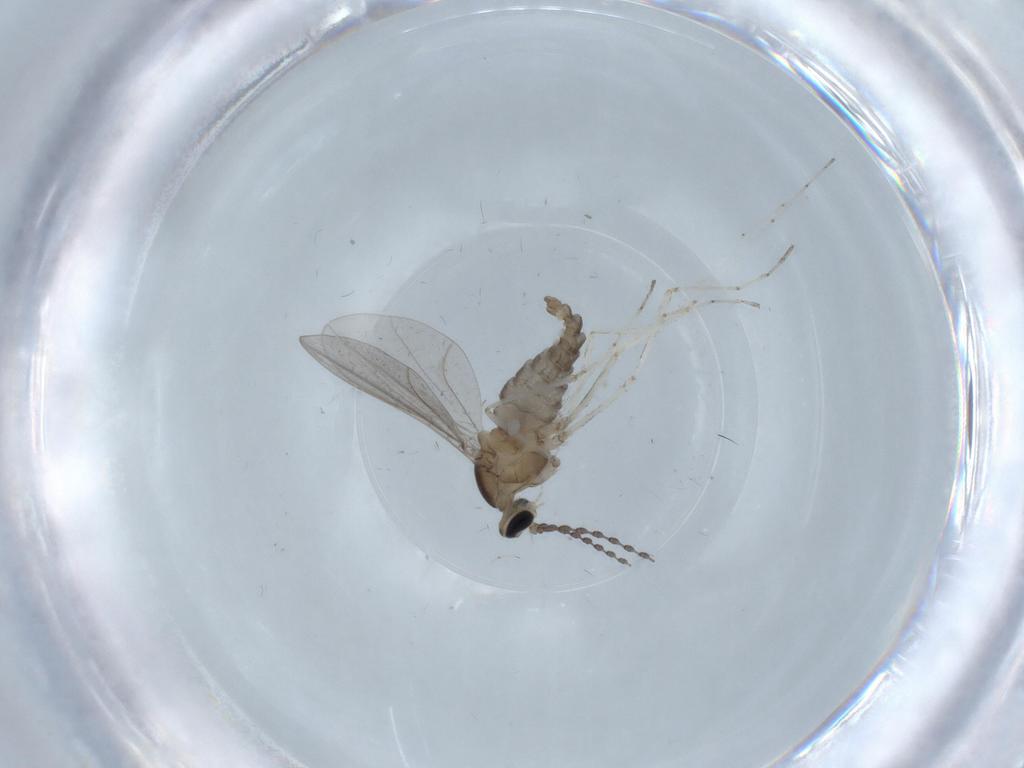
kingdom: Animalia
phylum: Arthropoda
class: Insecta
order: Diptera
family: Cecidomyiidae
